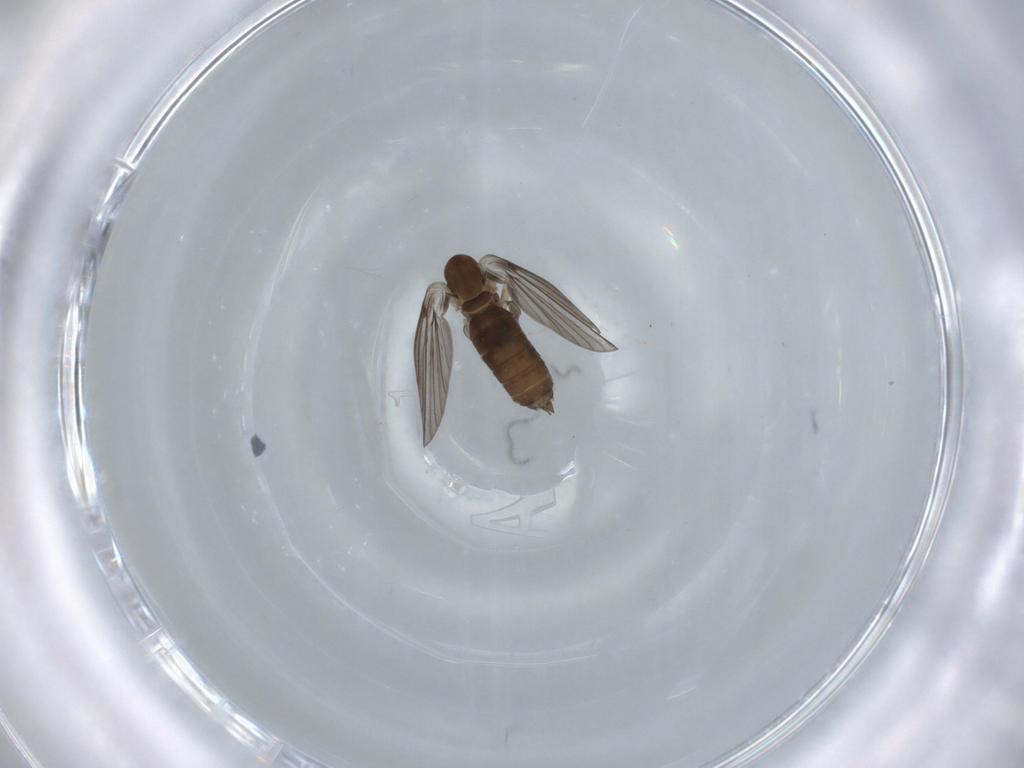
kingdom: Animalia
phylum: Arthropoda
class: Insecta
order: Diptera
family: Psychodidae
